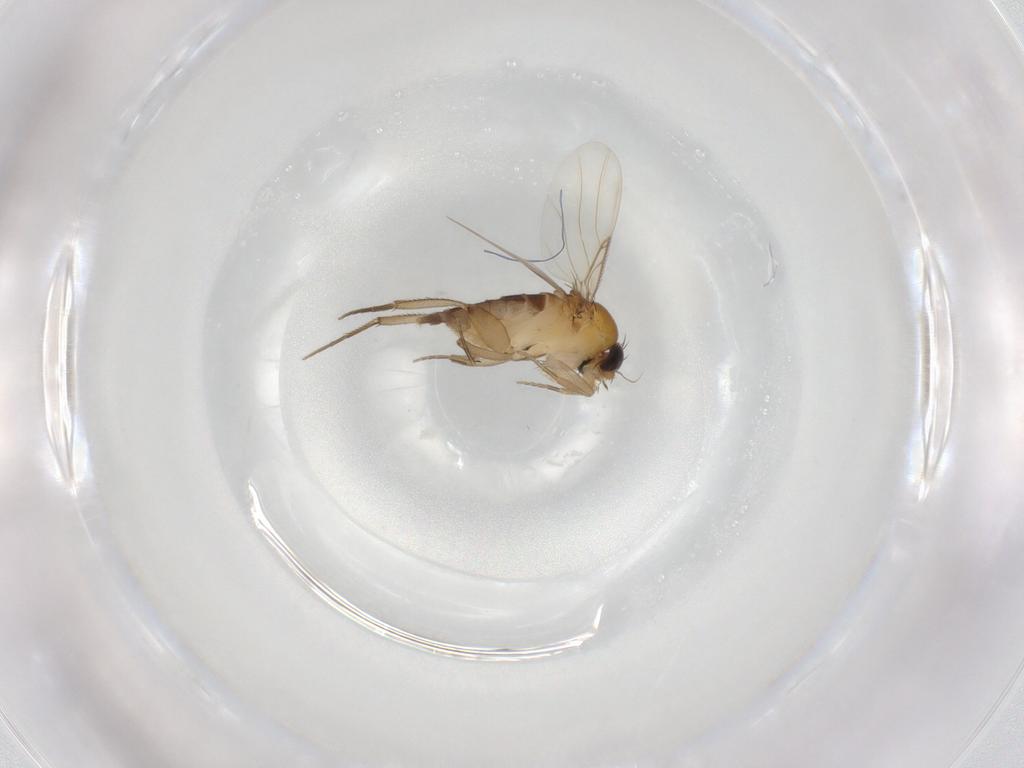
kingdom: Animalia
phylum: Arthropoda
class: Insecta
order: Diptera
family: Phoridae
